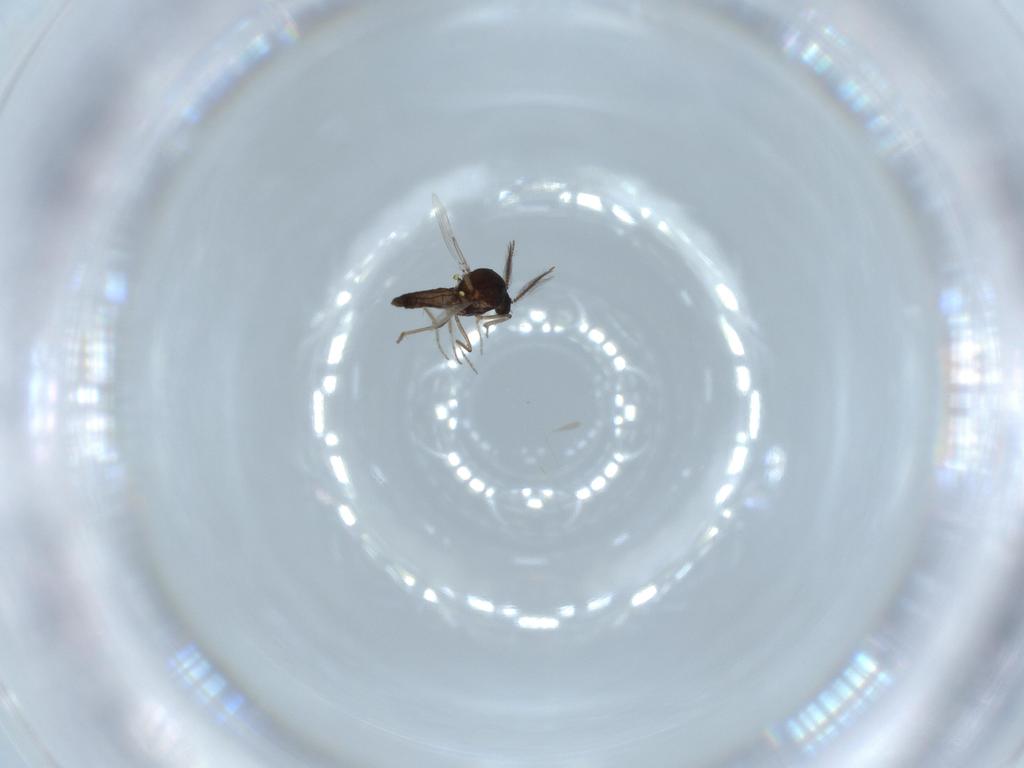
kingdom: Animalia
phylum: Arthropoda
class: Insecta
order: Diptera
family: Ceratopogonidae
